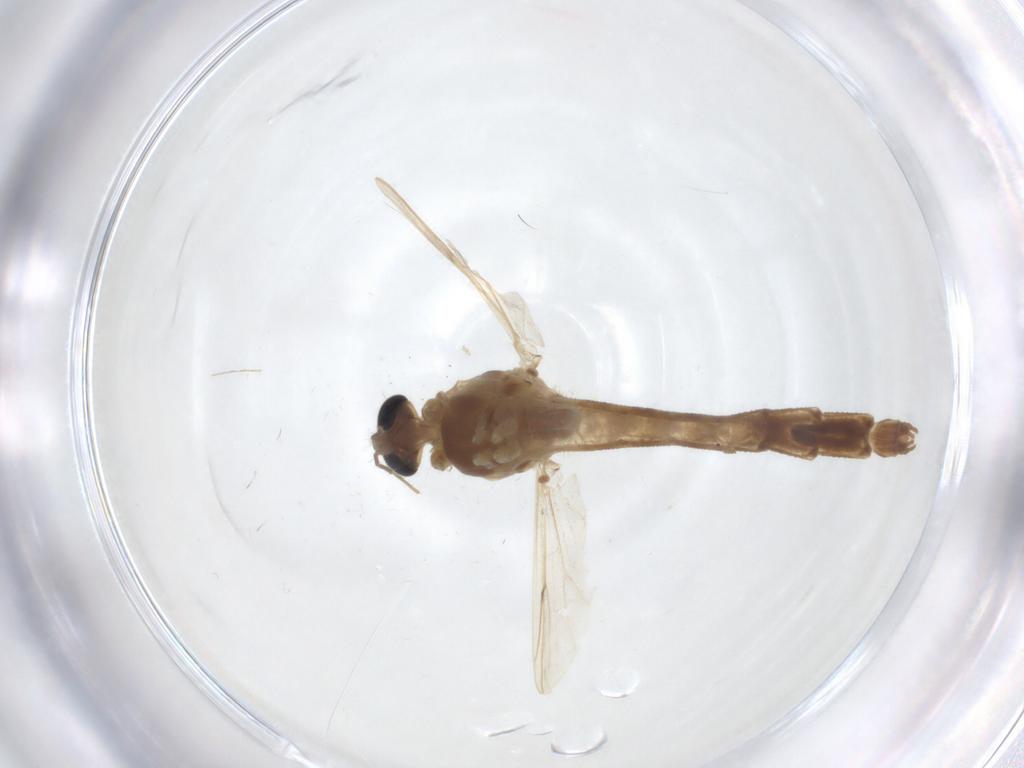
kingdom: Animalia
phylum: Arthropoda
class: Insecta
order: Diptera
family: Chironomidae
